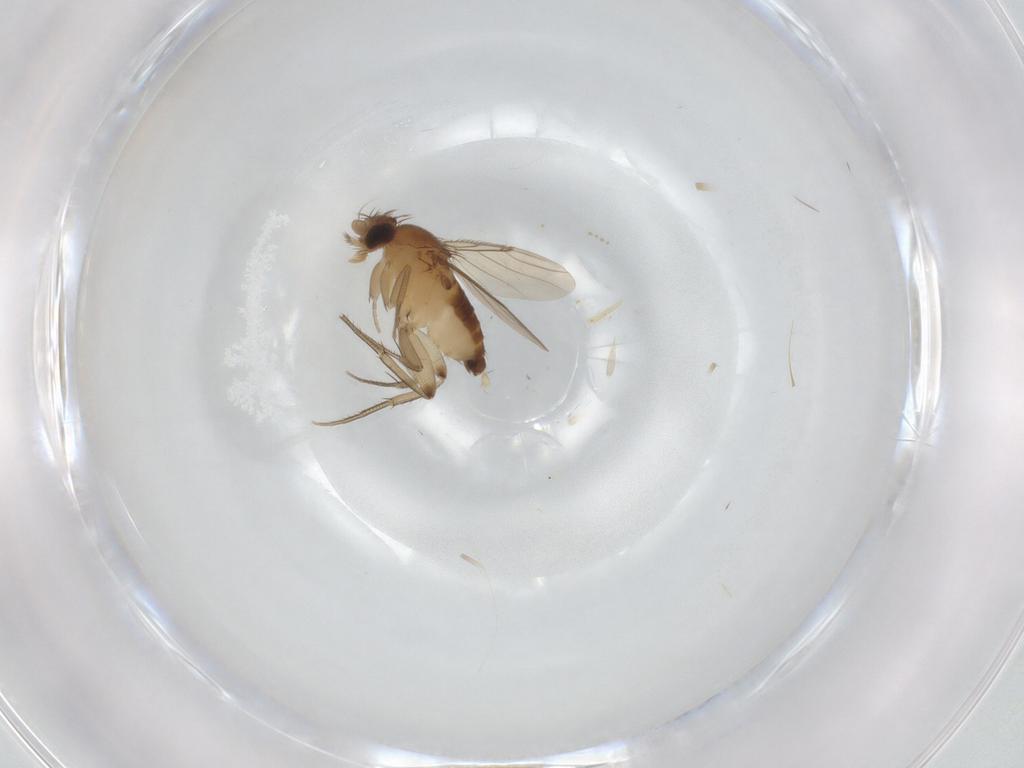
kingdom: Animalia
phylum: Arthropoda
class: Insecta
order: Diptera
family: Phoridae
